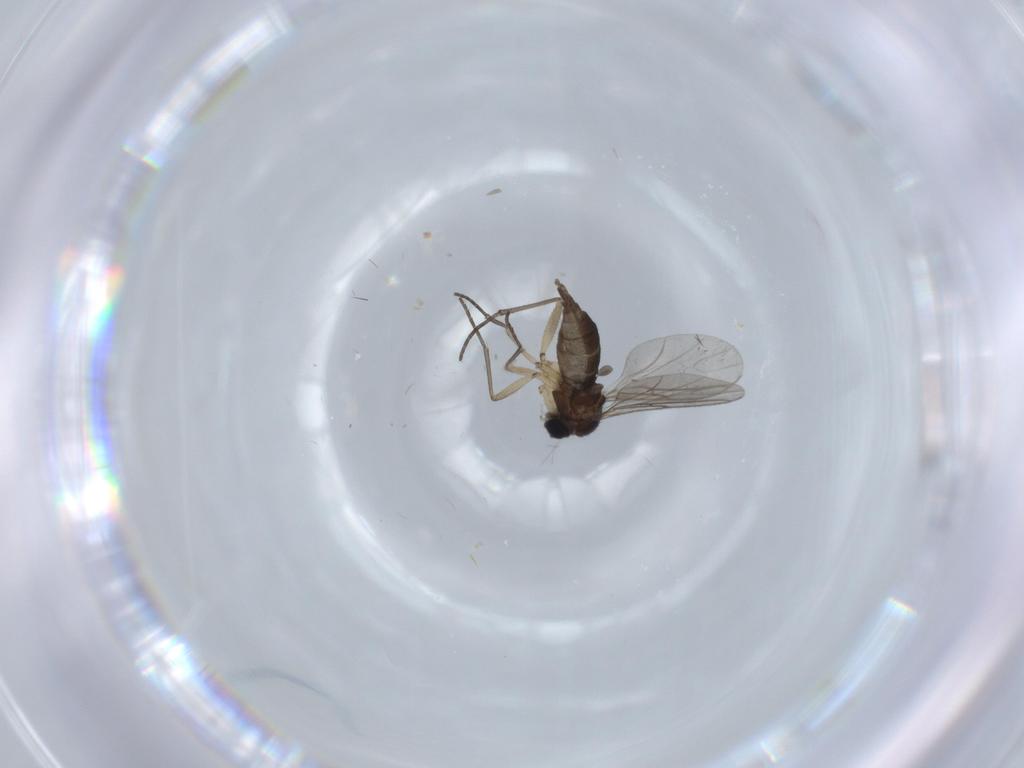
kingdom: Animalia
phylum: Arthropoda
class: Insecta
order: Diptera
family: Sciaridae
